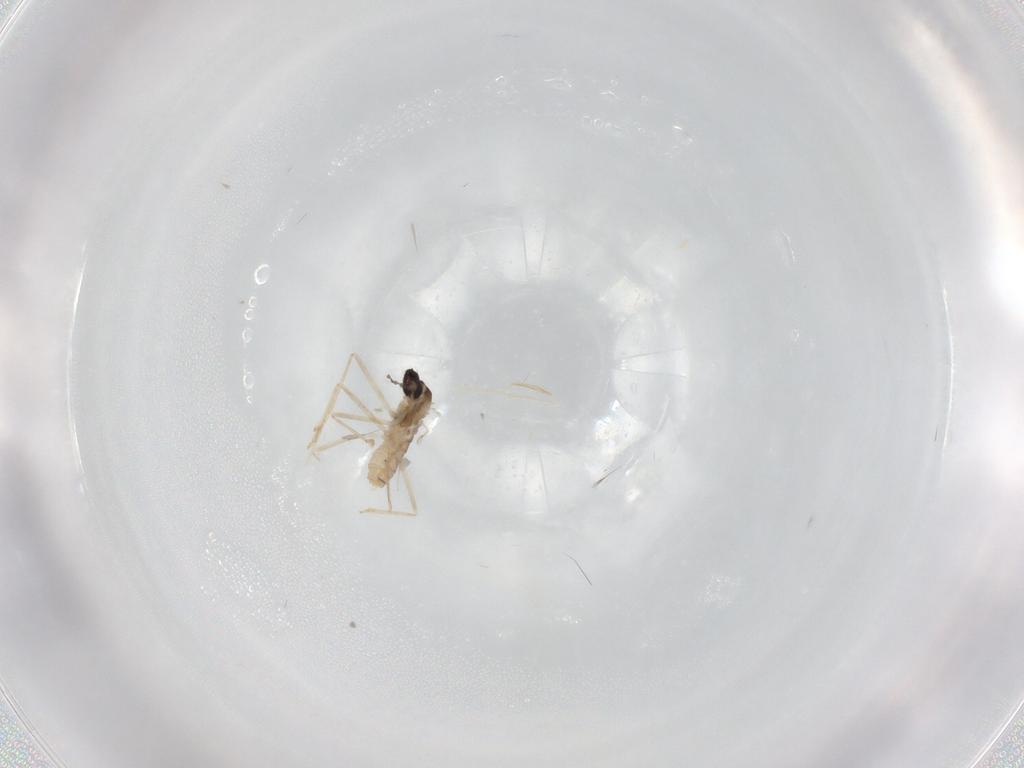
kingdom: Animalia
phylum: Arthropoda
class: Insecta
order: Diptera
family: Cecidomyiidae
